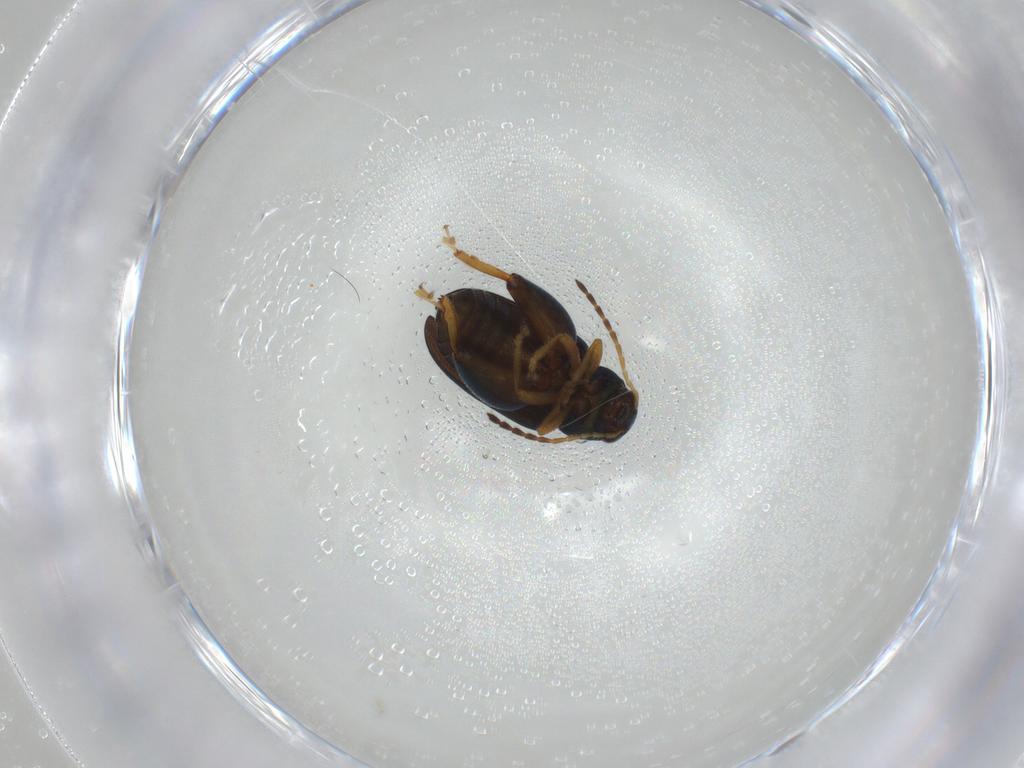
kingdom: Animalia
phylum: Arthropoda
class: Insecta
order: Coleoptera
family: Chrysomelidae
